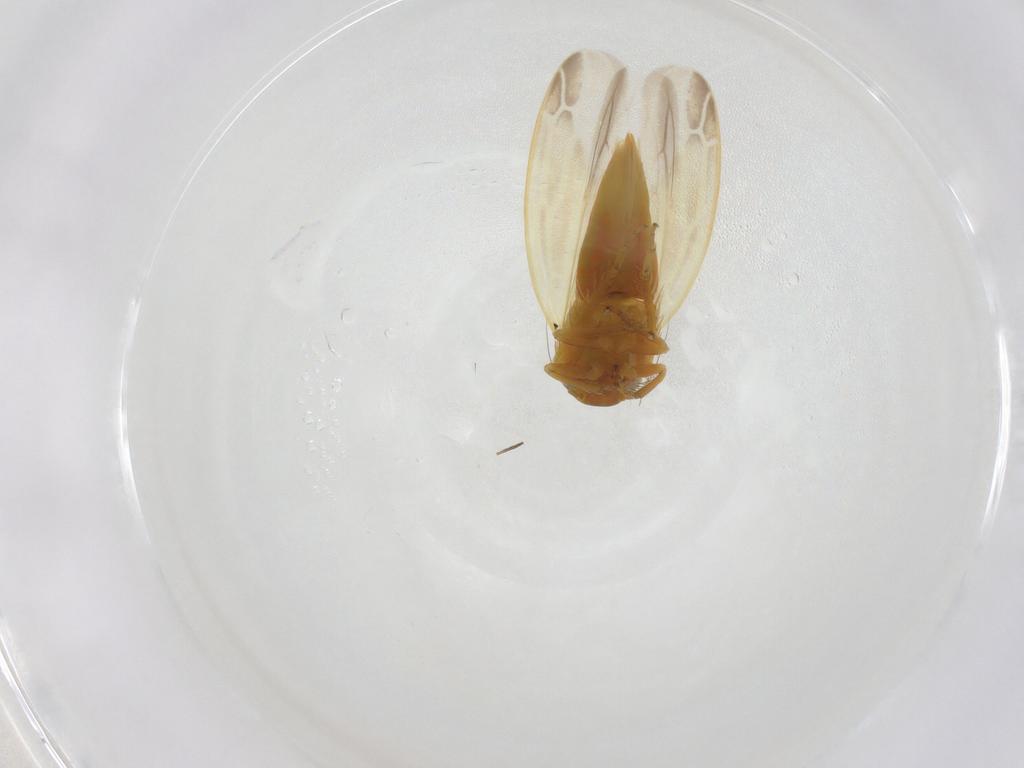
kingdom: Animalia
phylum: Arthropoda
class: Insecta
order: Hemiptera
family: Cicadellidae
